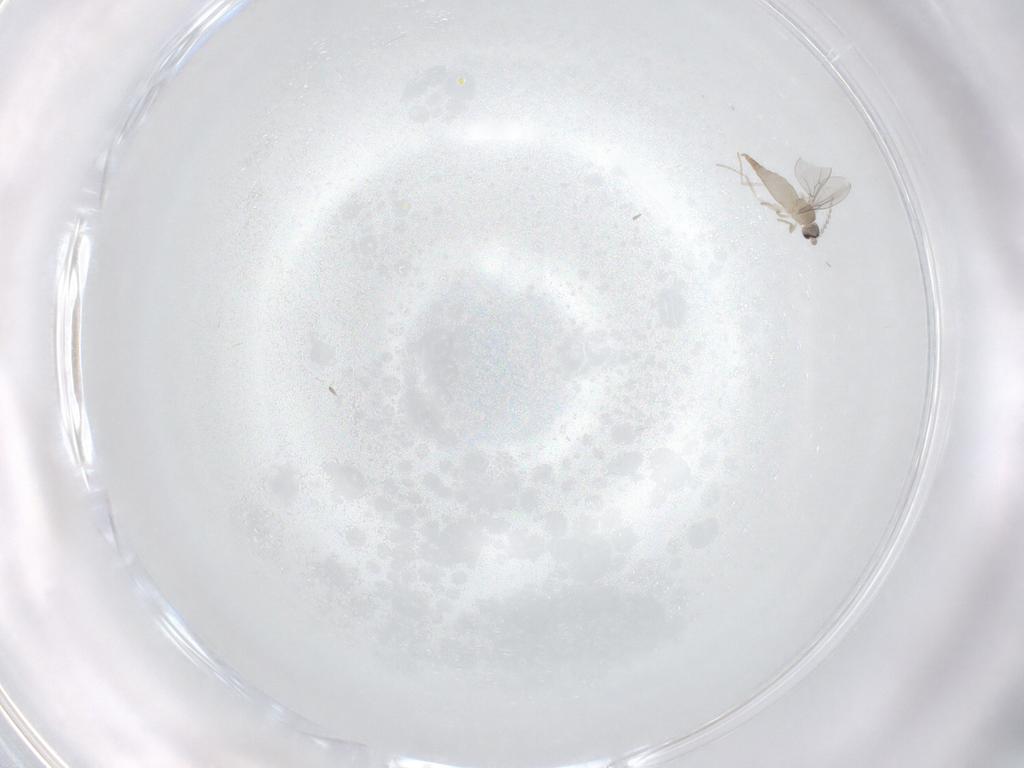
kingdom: Animalia
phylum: Arthropoda
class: Insecta
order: Diptera
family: Cecidomyiidae
